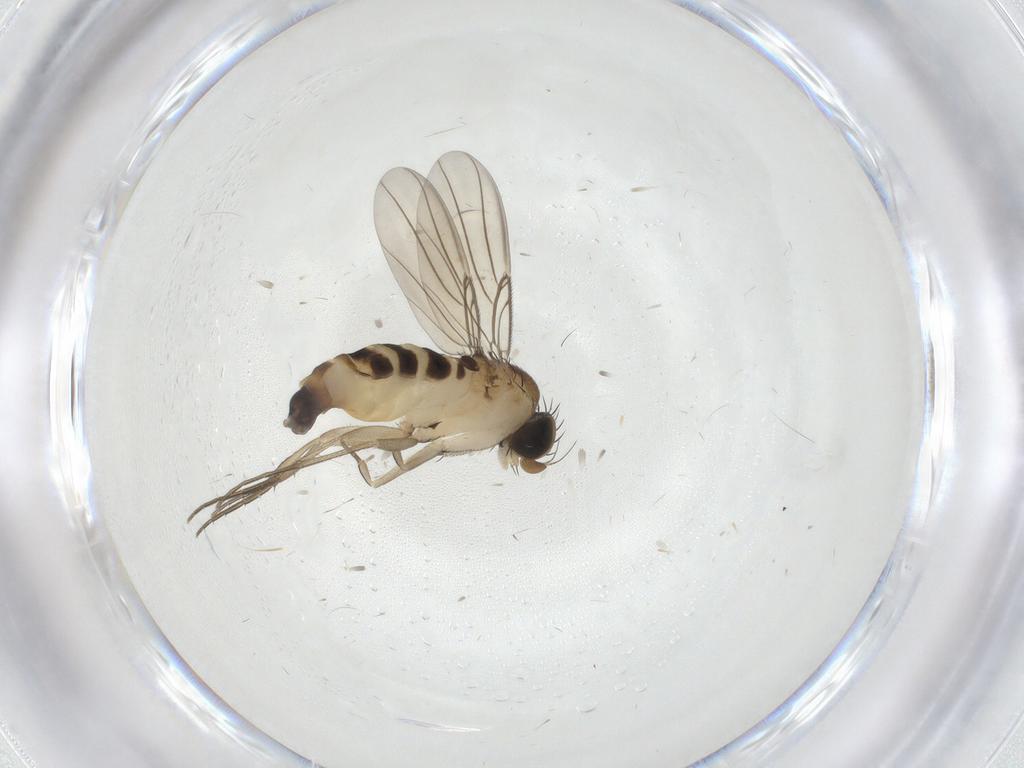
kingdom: Animalia
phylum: Arthropoda
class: Insecta
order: Diptera
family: Phoridae
